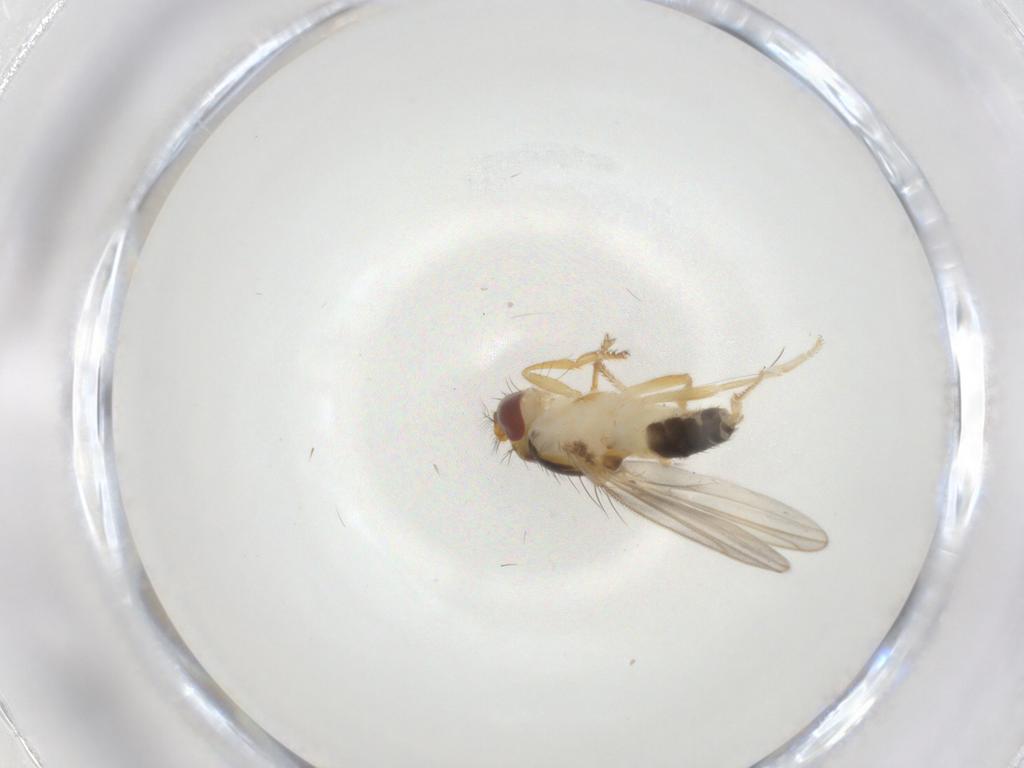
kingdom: Animalia
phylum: Arthropoda
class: Insecta
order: Diptera
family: Periscelididae
